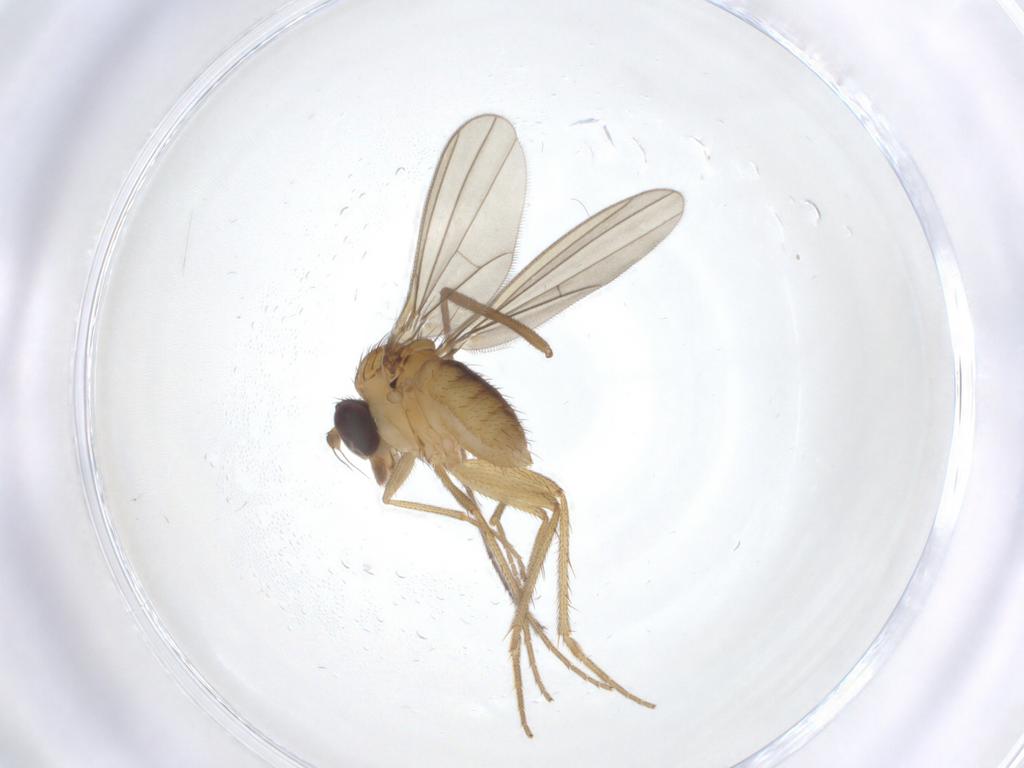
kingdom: Animalia
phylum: Arthropoda
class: Insecta
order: Diptera
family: Dolichopodidae
